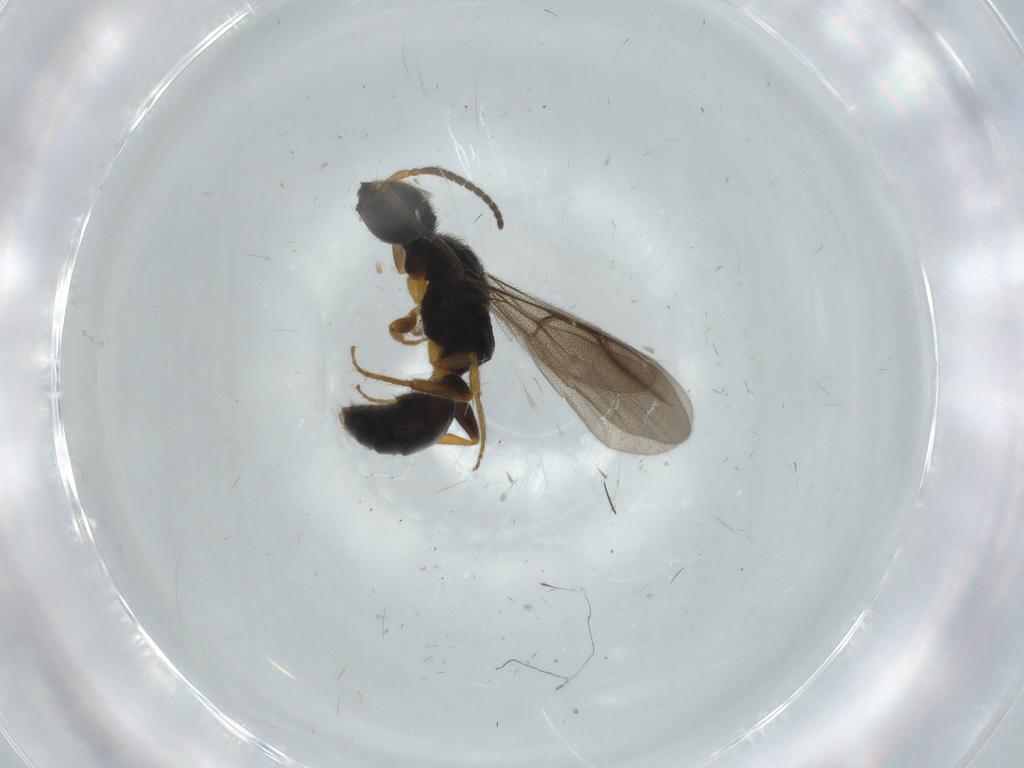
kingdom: Animalia
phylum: Arthropoda
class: Insecta
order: Hymenoptera
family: Bethylidae
